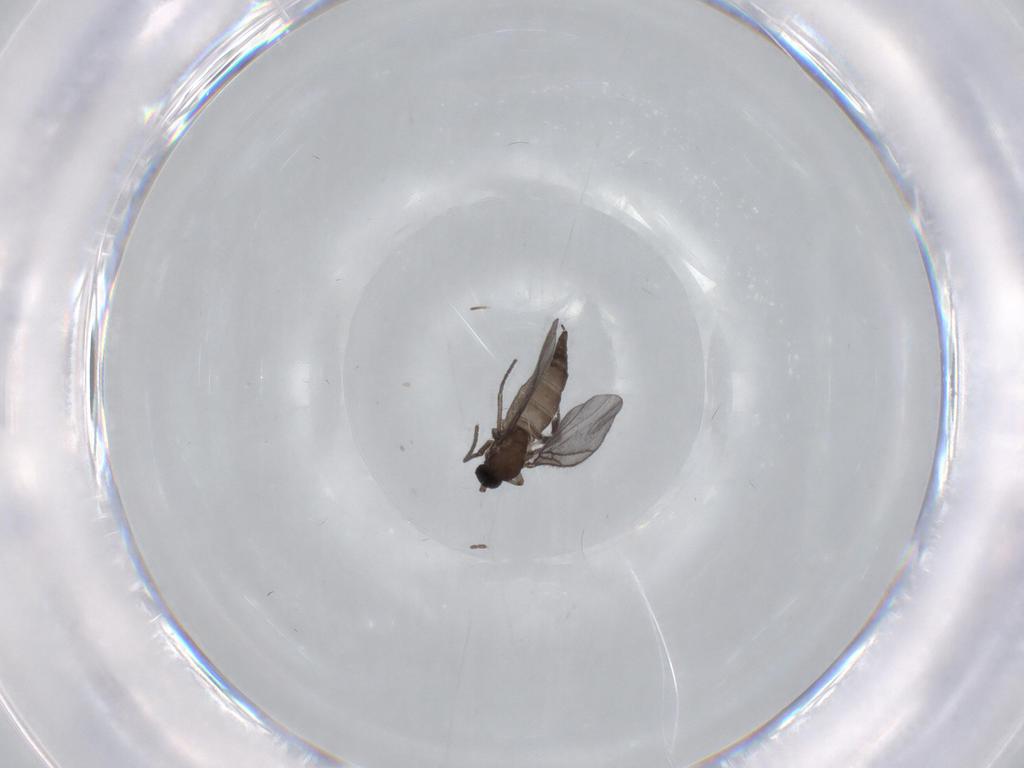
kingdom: Animalia
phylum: Arthropoda
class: Insecta
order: Diptera
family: Sciaridae
